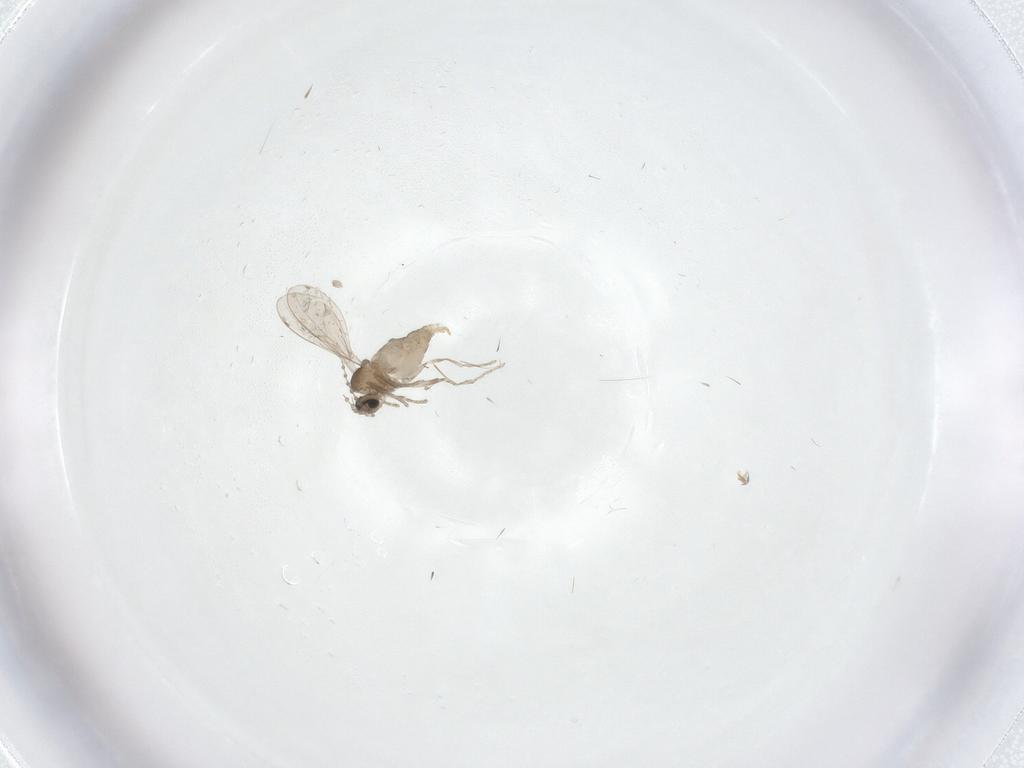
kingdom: Animalia
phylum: Arthropoda
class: Insecta
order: Diptera
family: Cecidomyiidae
